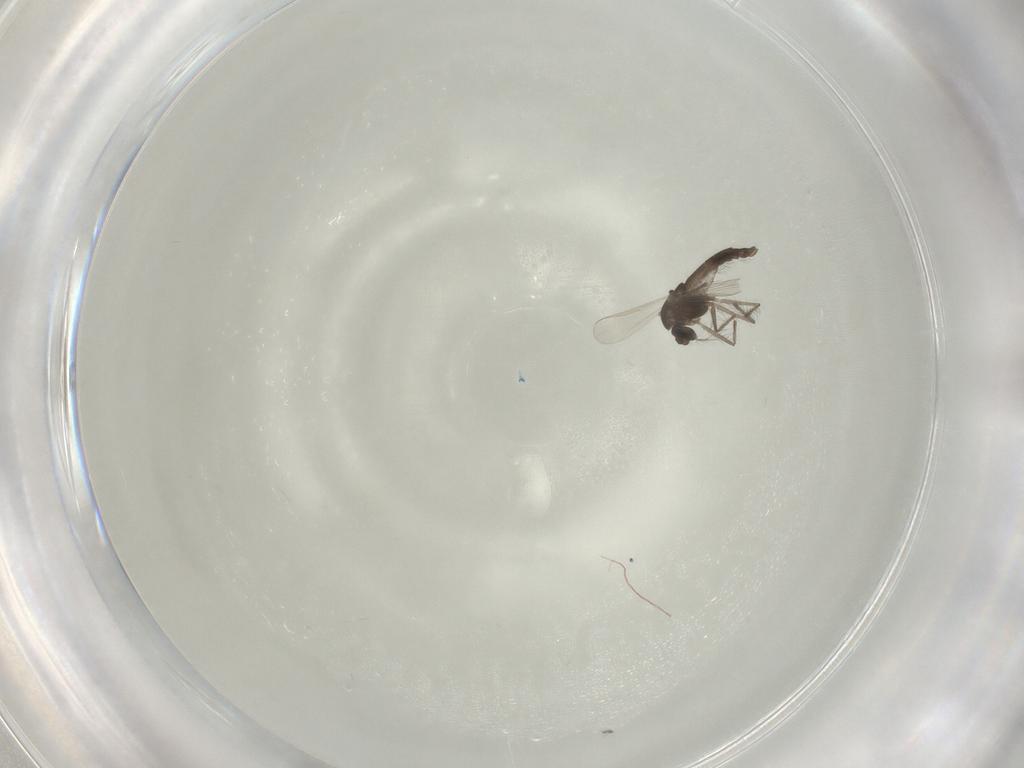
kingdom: Animalia
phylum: Arthropoda
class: Insecta
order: Diptera
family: Chironomidae
